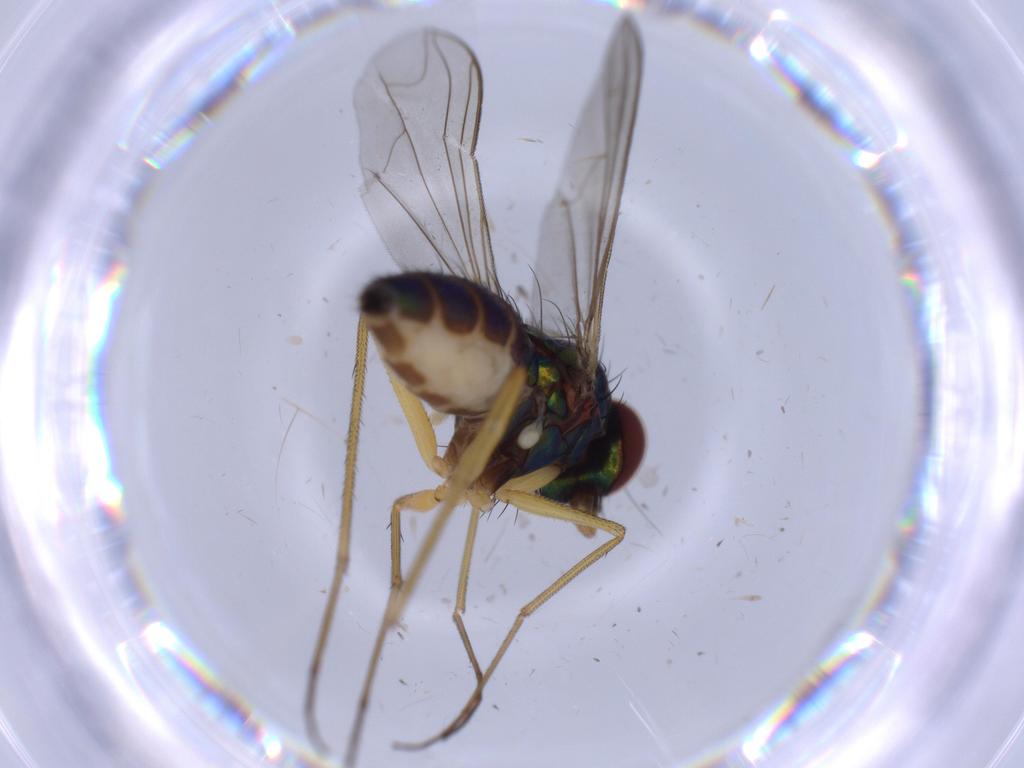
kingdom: Animalia
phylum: Arthropoda
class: Insecta
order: Diptera
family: Dolichopodidae
